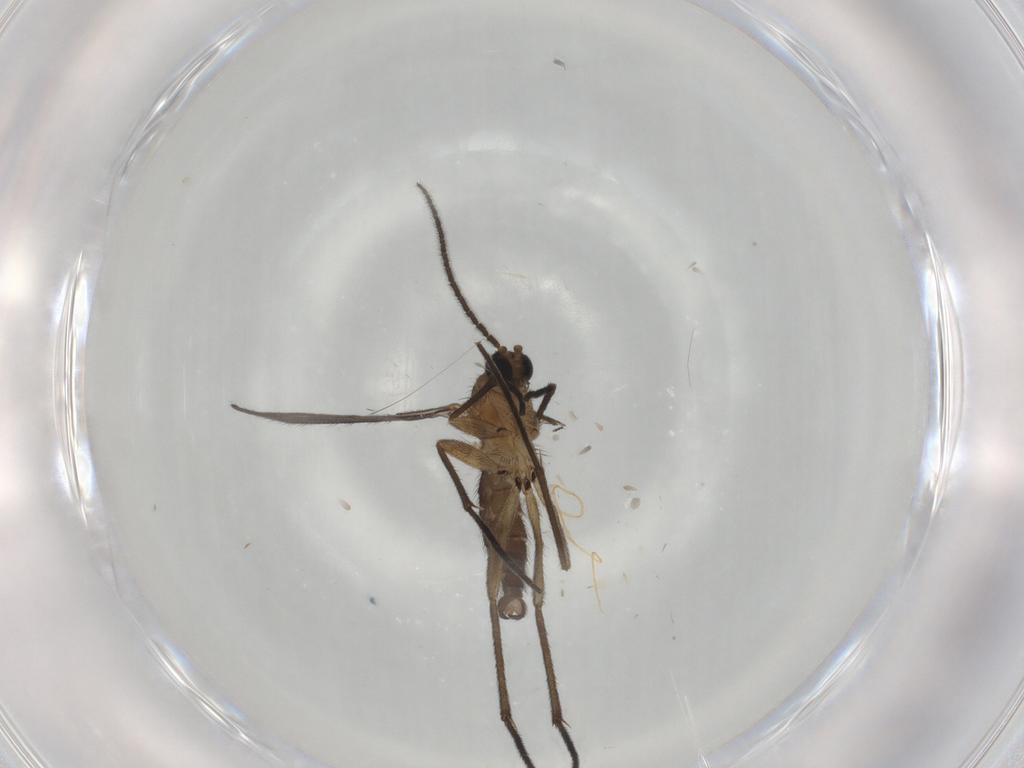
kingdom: Animalia
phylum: Arthropoda
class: Insecta
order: Diptera
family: Sciaridae
